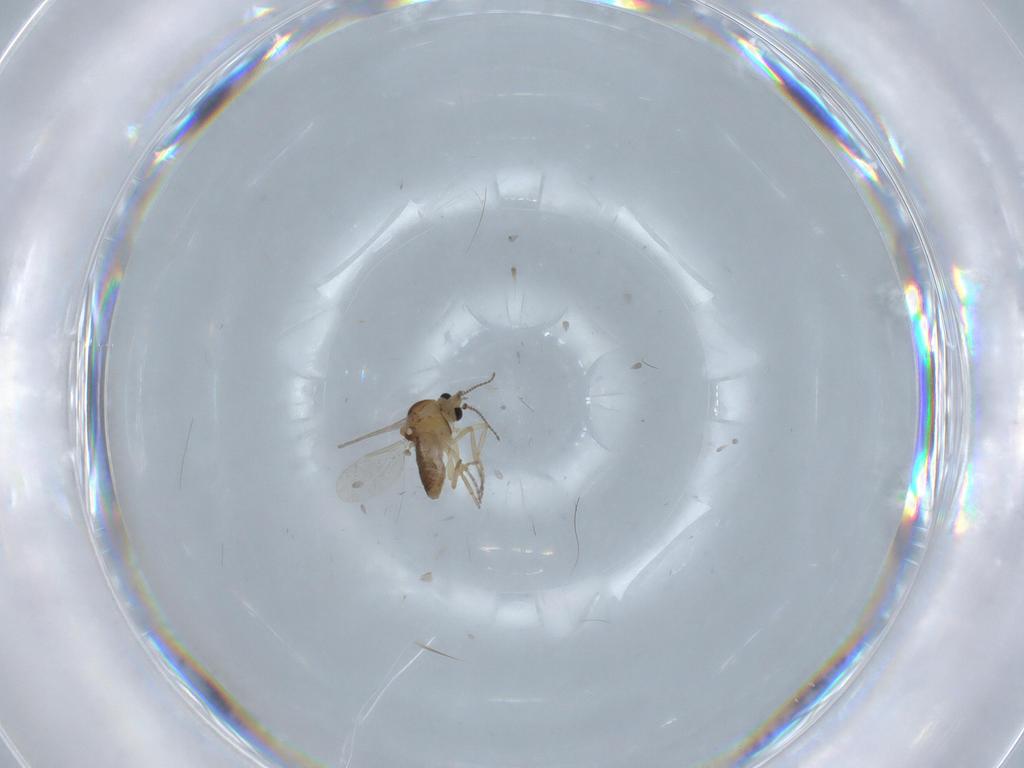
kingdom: Animalia
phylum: Arthropoda
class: Insecta
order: Diptera
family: Ceratopogonidae
